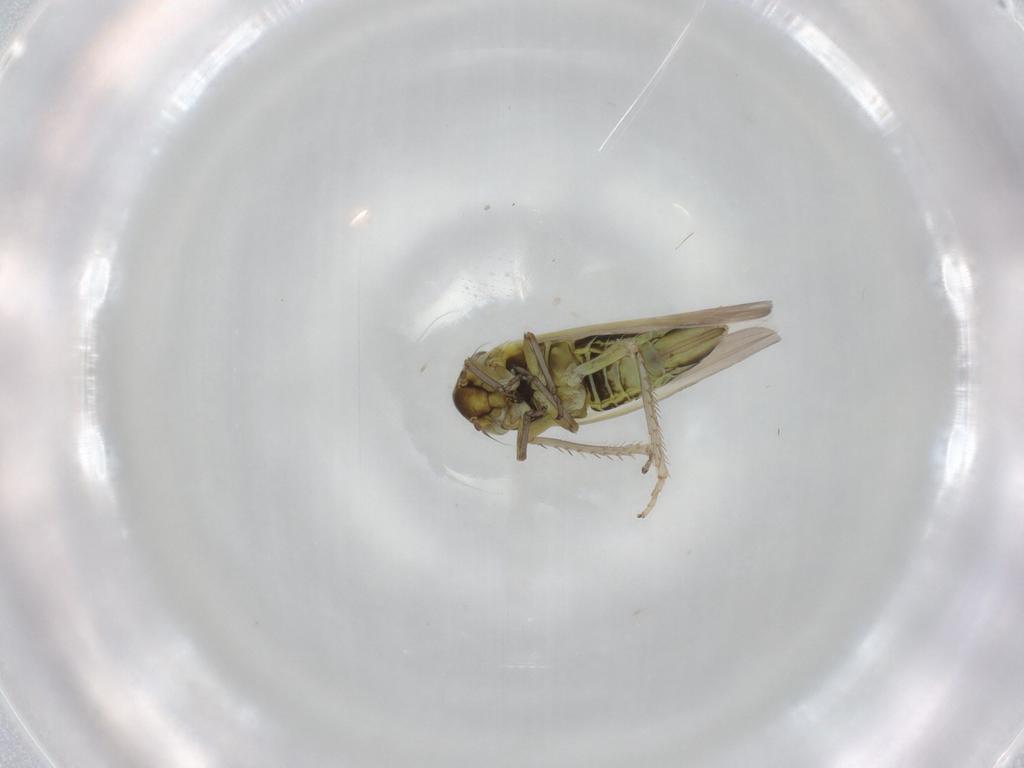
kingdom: Animalia
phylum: Arthropoda
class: Insecta
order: Hemiptera
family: Cicadellidae
